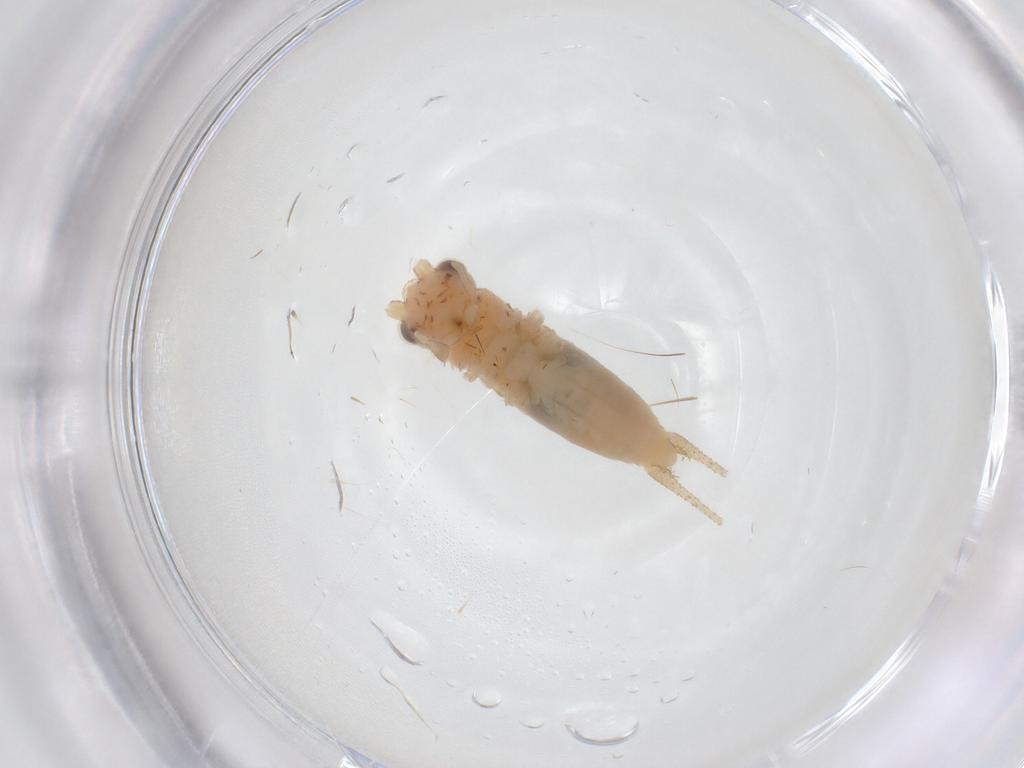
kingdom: Animalia
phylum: Arthropoda
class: Insecta
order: Orthoptera
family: Trigonidiidae
